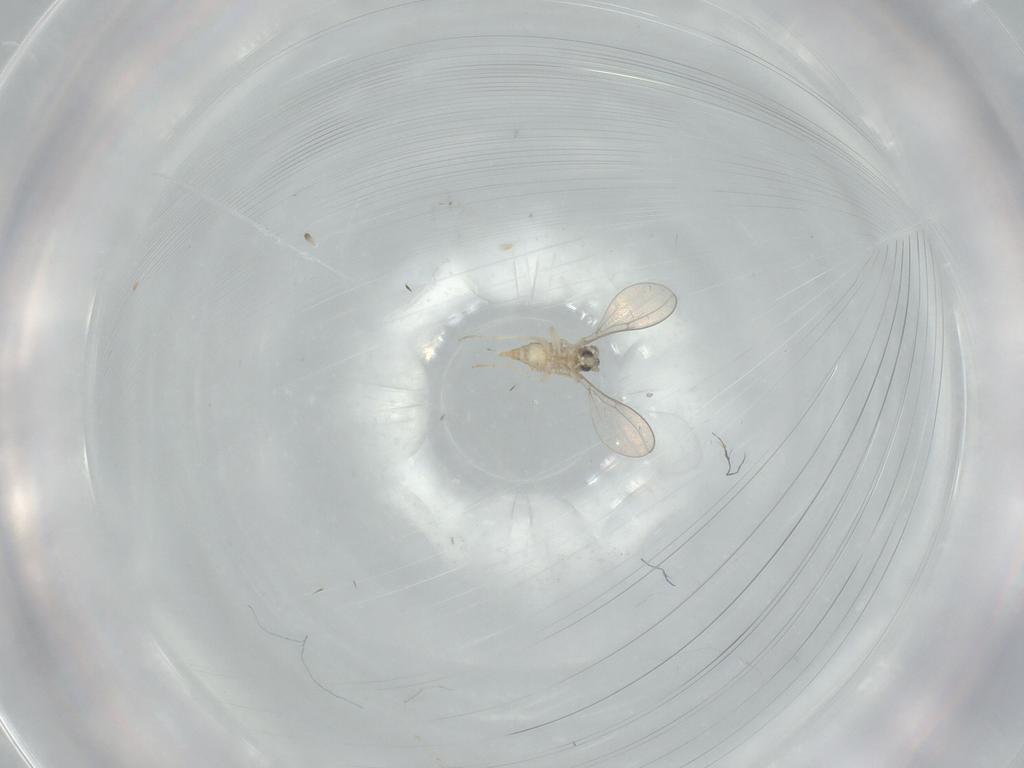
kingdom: Animalia
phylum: Arthropoda
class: Insecta
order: Diptera
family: Cecidomyiidae
